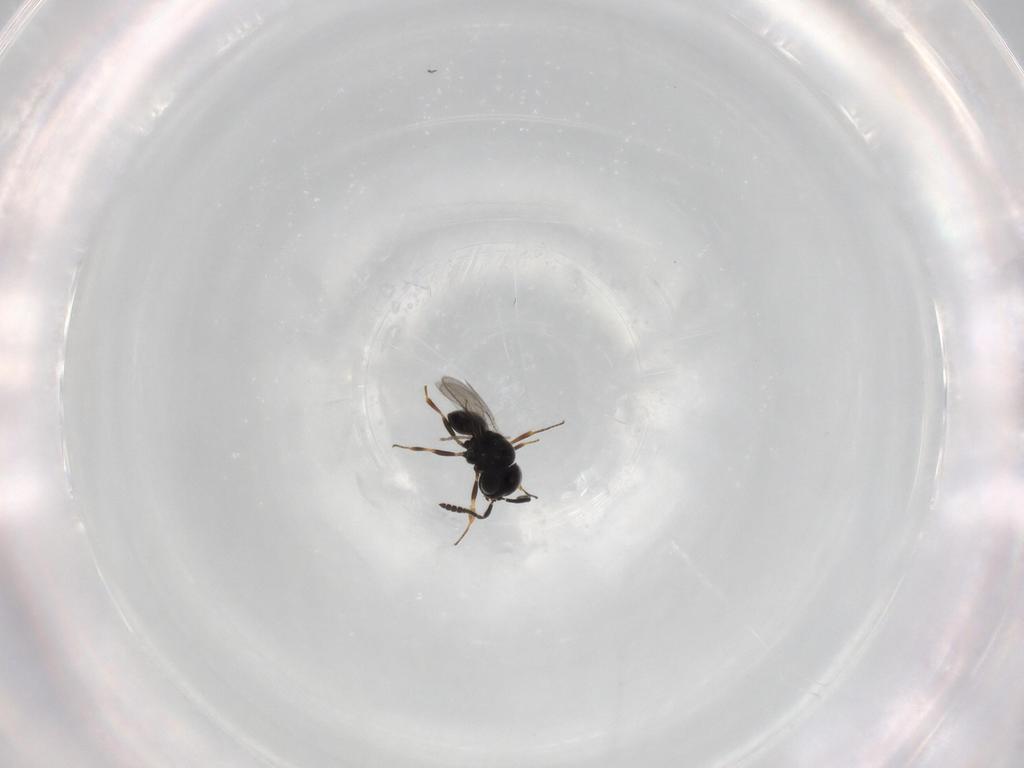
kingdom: Animalia
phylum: Arthropoda
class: Insecta
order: Hymenoptera
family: Scelionidae
